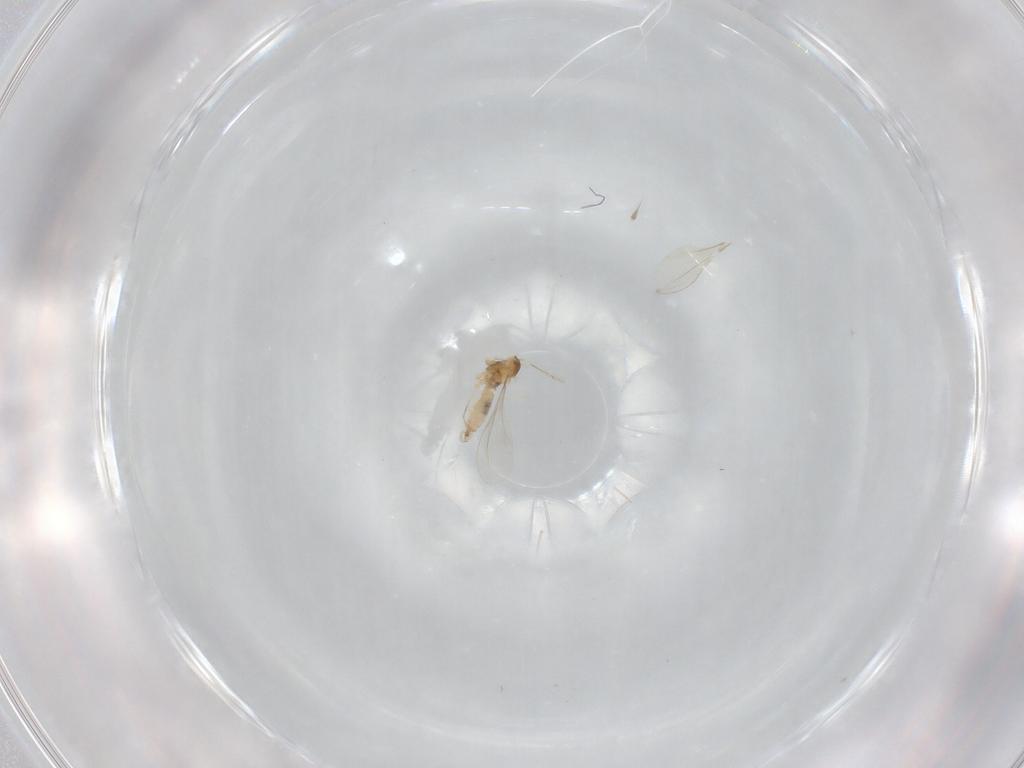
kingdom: Animalia
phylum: Arthropoda
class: Insecta
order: Diptera
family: Cecidomyiidae
